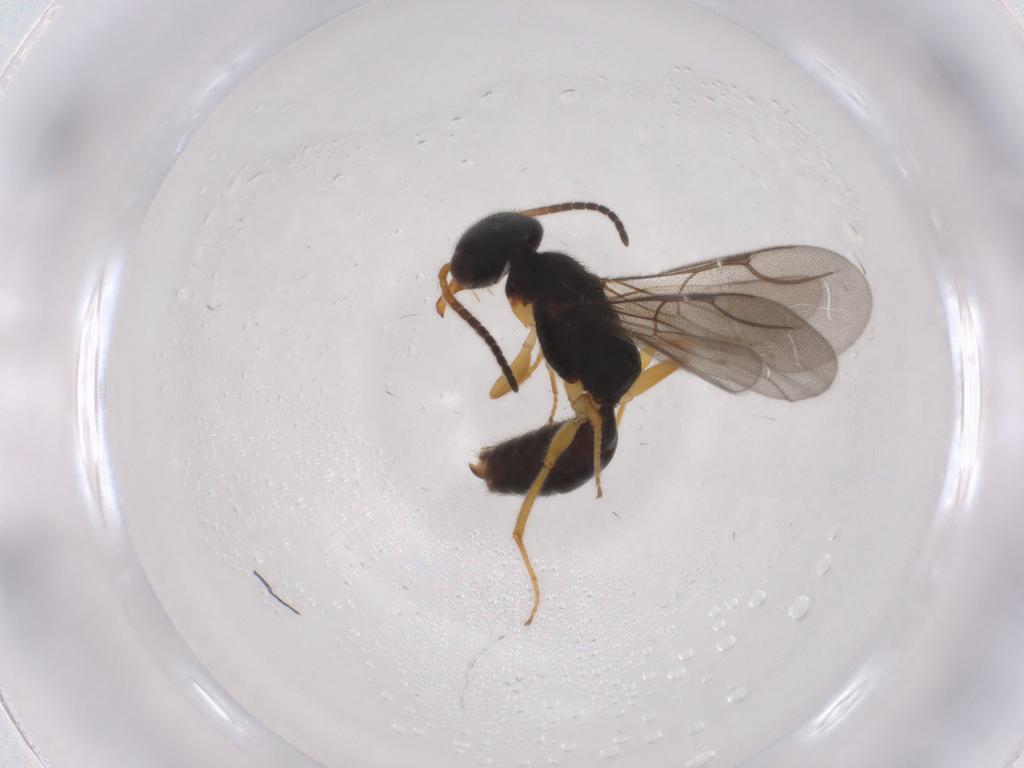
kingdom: Animalia
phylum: Arthropoda
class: Insecta
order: Hymenoptera
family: Bethylidae
